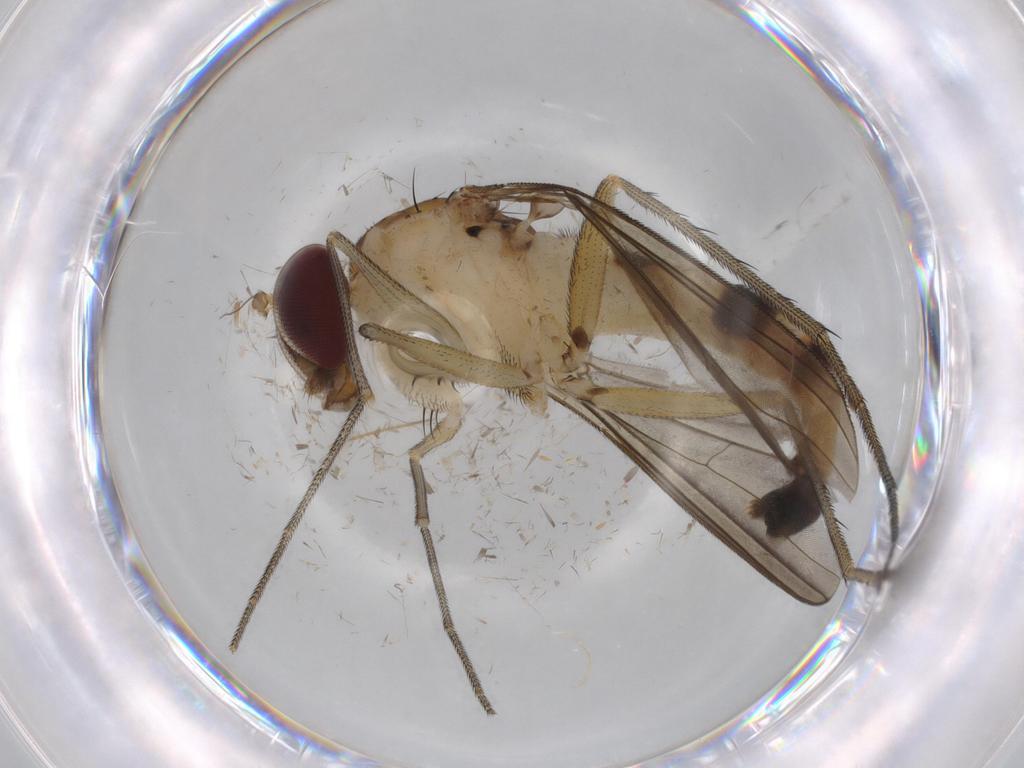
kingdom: Animalia
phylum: Arthropoda
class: Insecta
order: Diptera
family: Dolichopodidae
